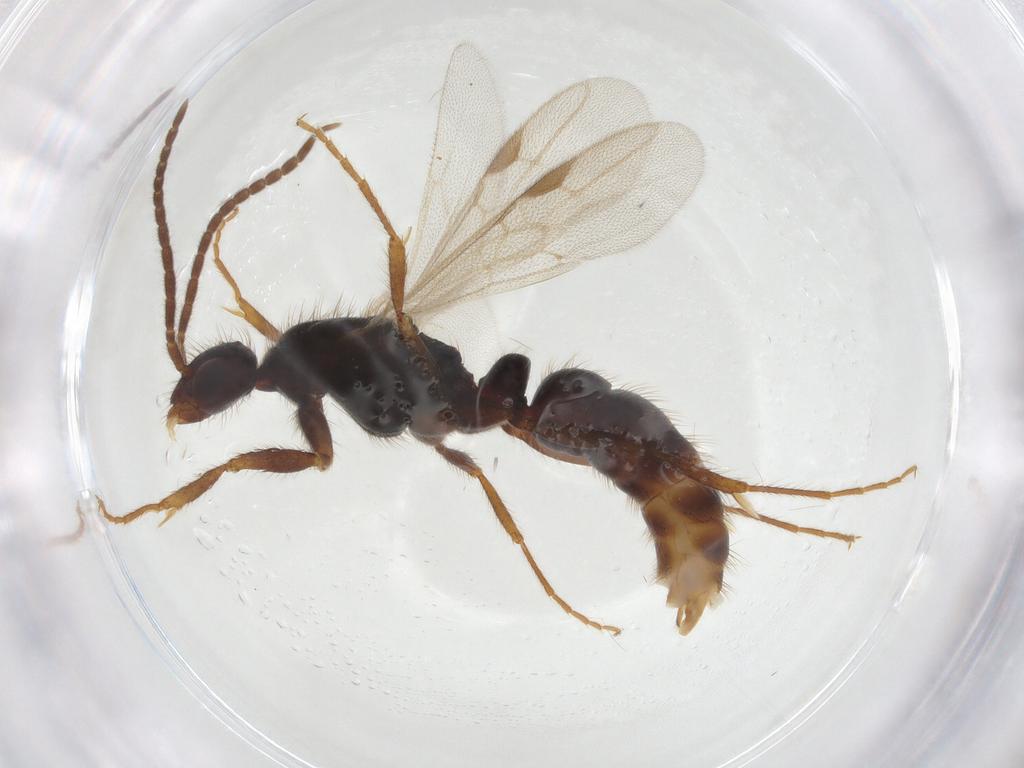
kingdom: Animalia
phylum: Arthropoda
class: Insecta
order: Hymenoptera
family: Formicidae
